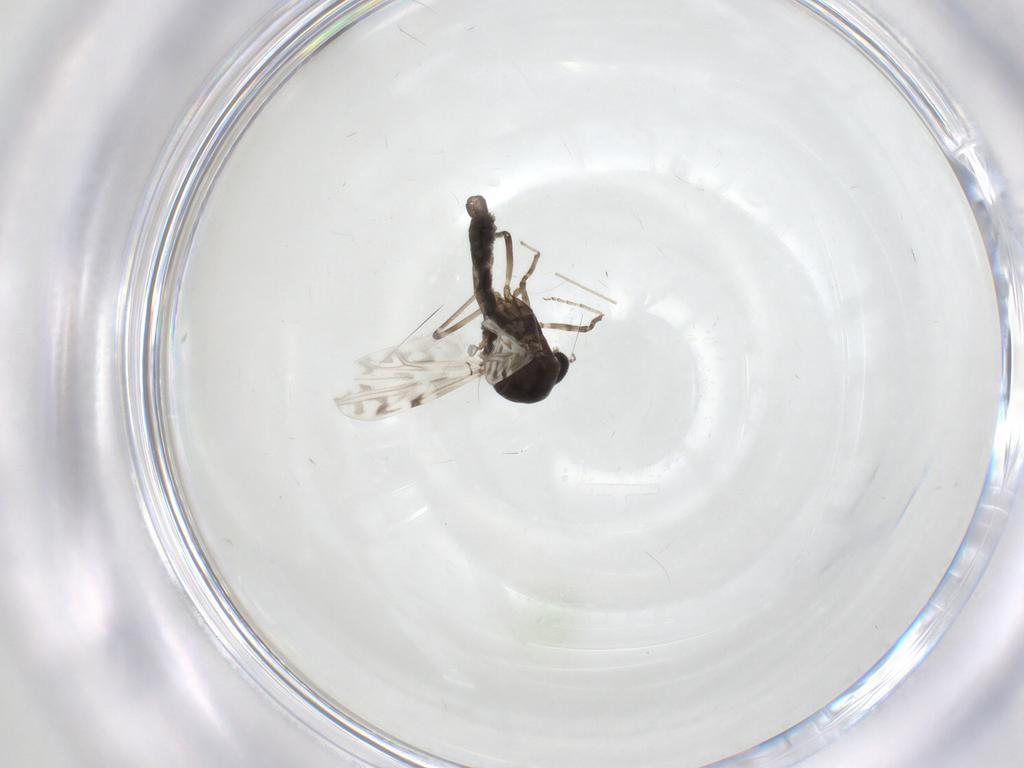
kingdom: Animalia
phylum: Arthropoda
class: Insecta
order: Diptera
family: Ceratopogonidae
